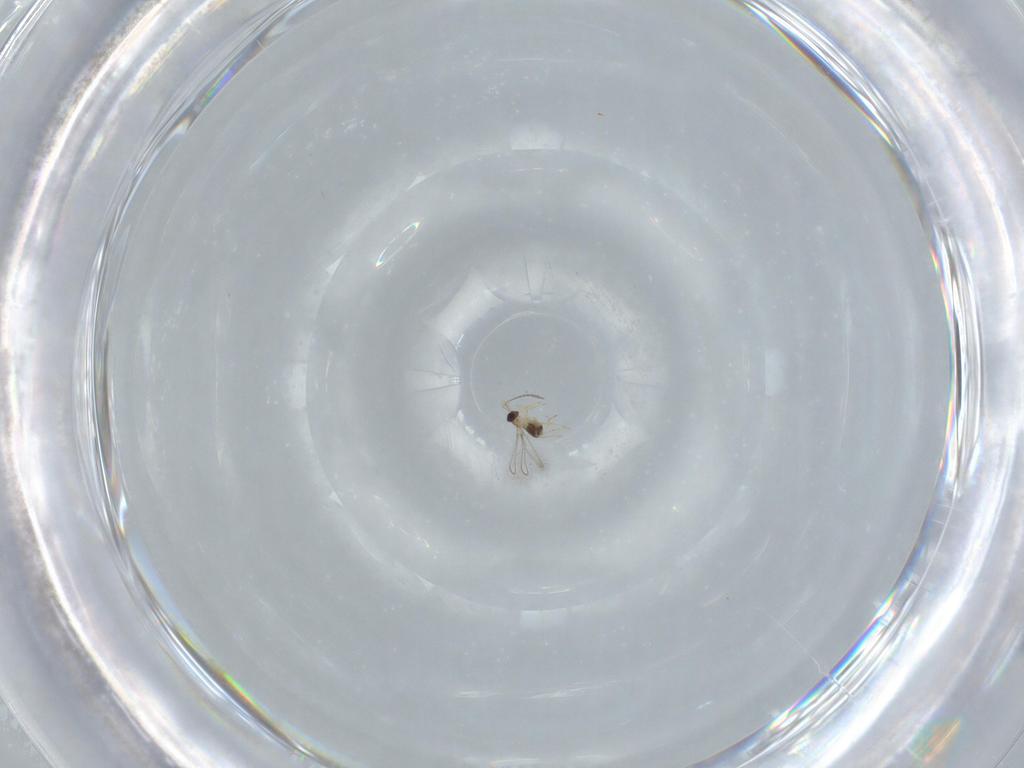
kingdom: Animalia
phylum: Arthropoda
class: Insecta
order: Hymenoptera
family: Mymaridae
